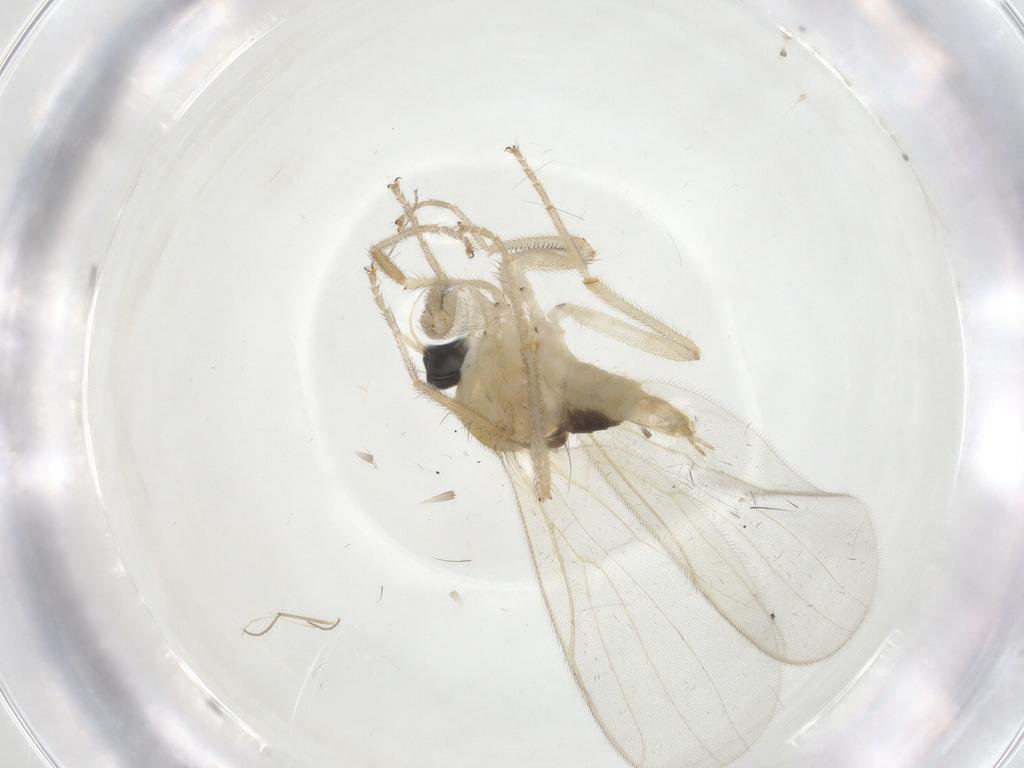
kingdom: Animalia
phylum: Arthropoda
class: Insecta
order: Diptera
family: Hybotidae
